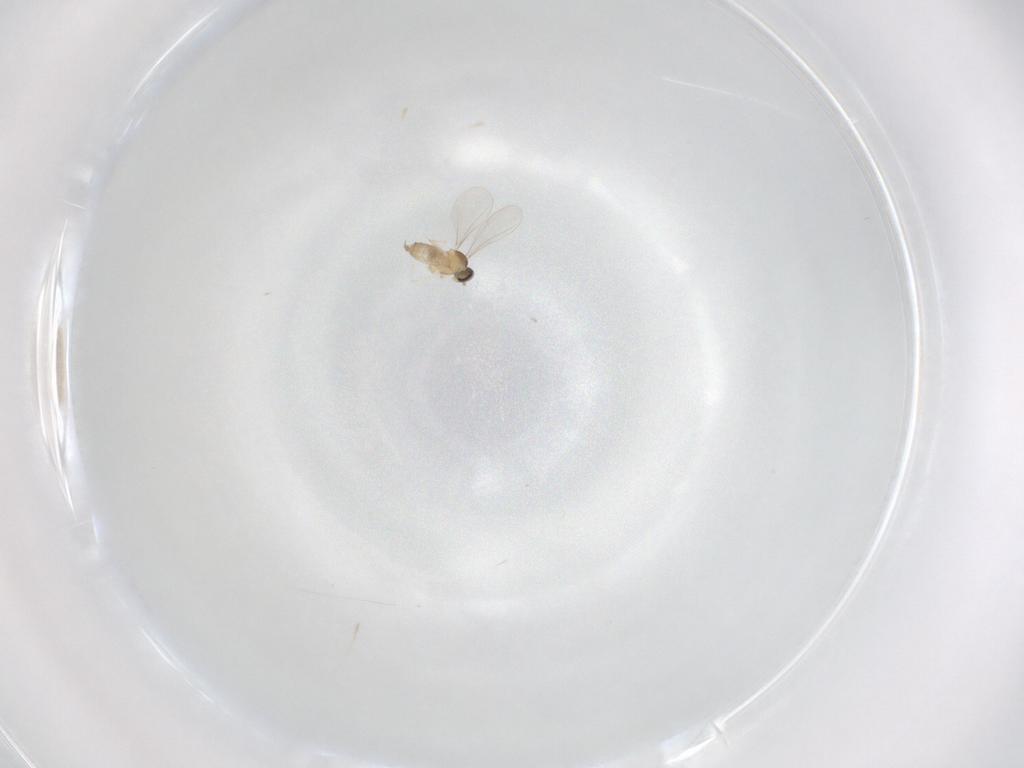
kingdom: Animalia
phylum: Arthropoda
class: Insecta
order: Diptera
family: Cecidomyiidae
